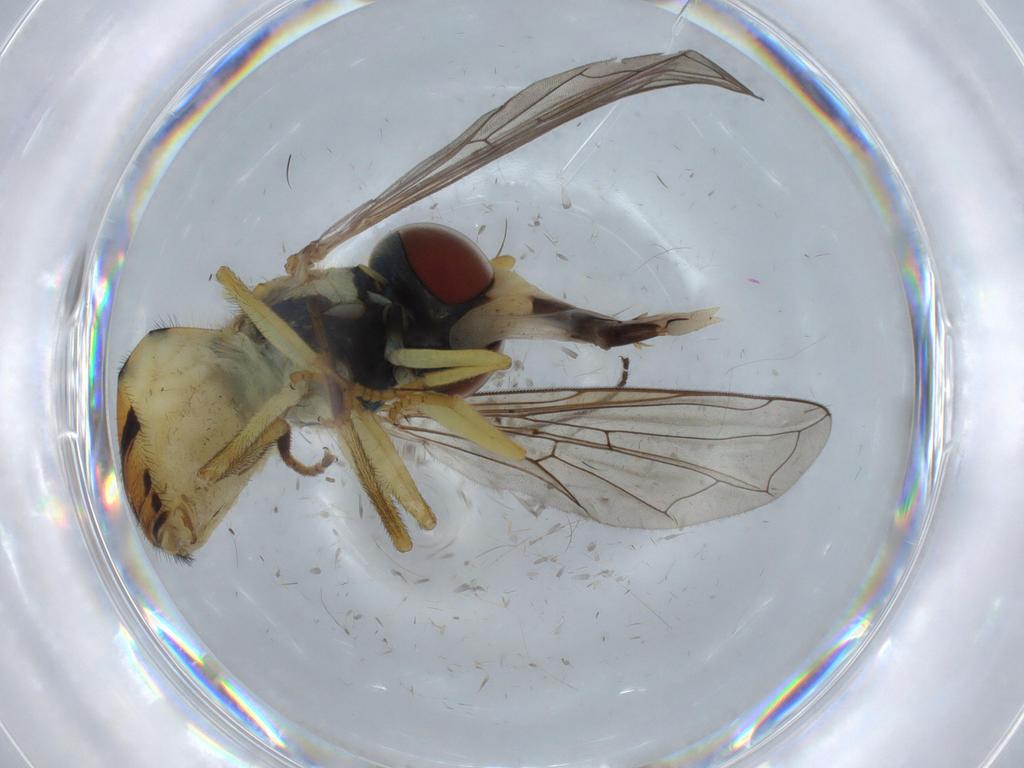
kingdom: Animalia
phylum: Arthropoda
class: Insecta
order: Diptera
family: Syrphidae
